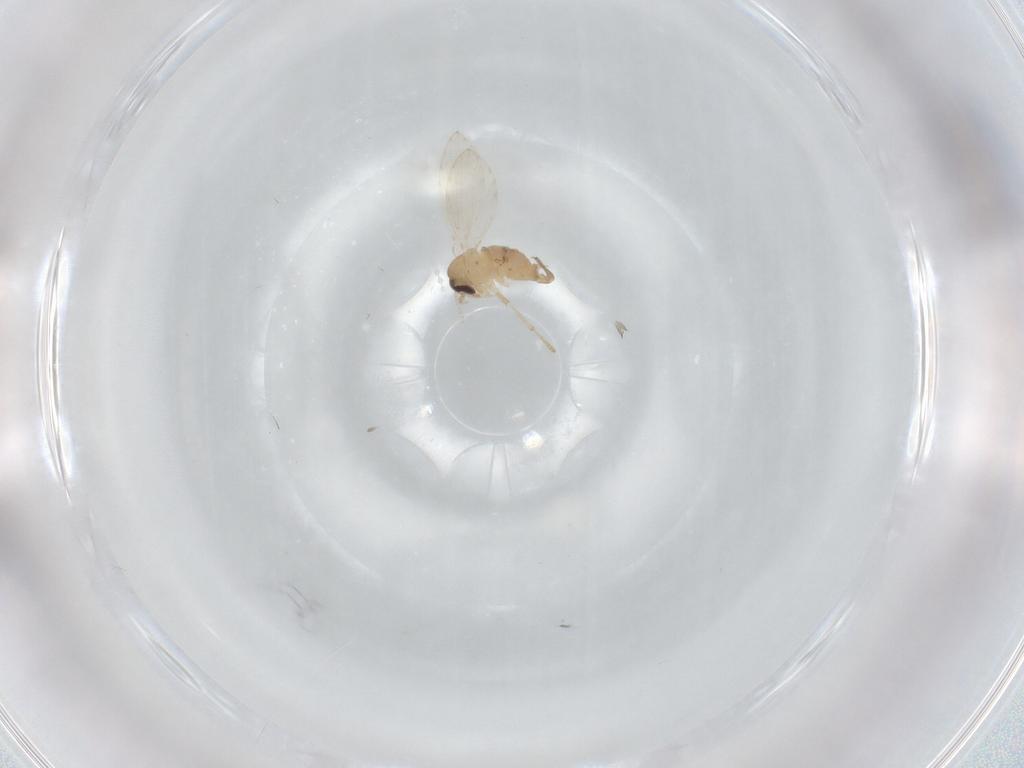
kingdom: Animalia
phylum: Arthropoda
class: Insecta
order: Diptera
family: Psychodidae
